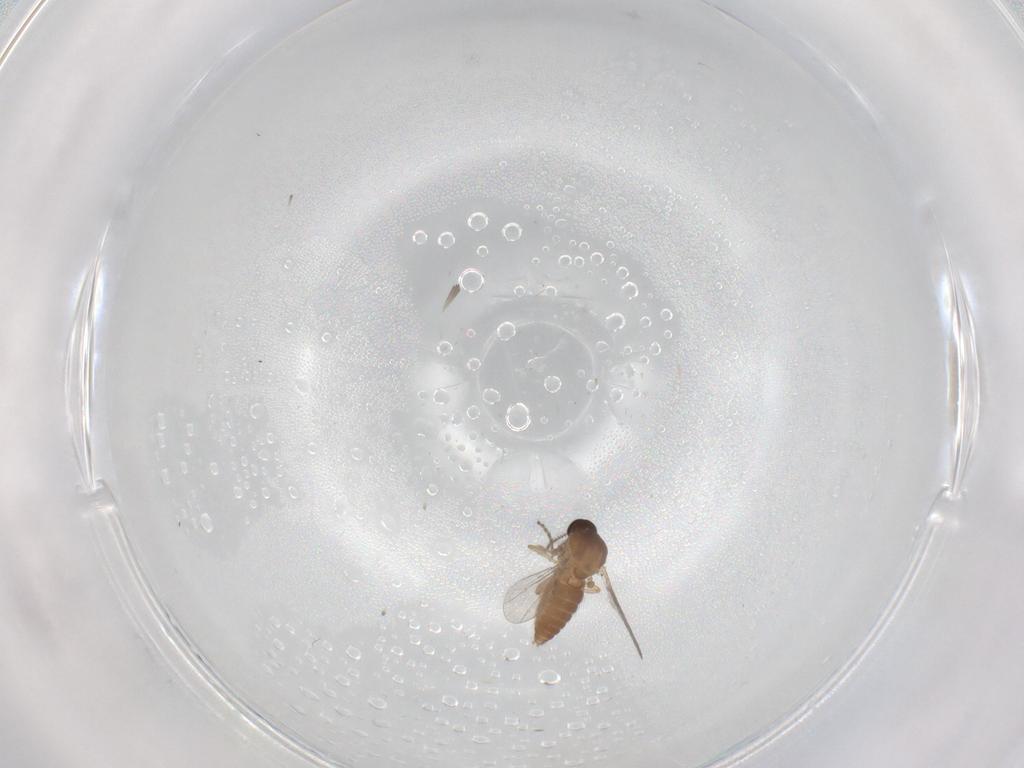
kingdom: Animalia
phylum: Arthropoda
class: Insecta
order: Diptera
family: Ceratopogonidae
